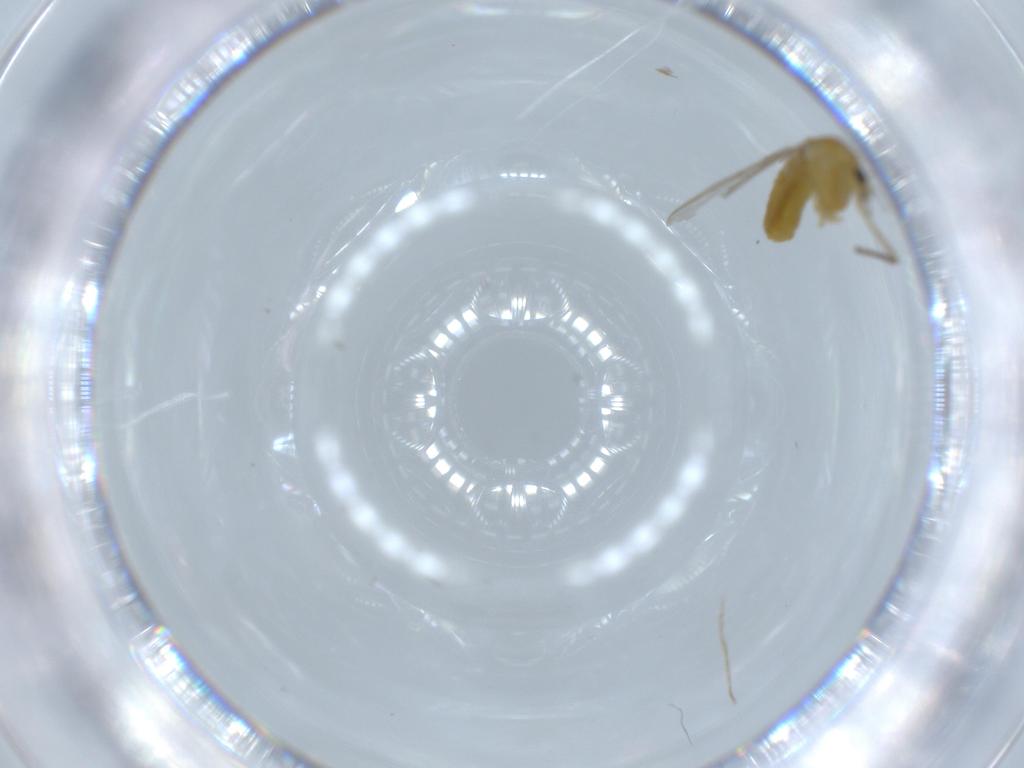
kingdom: Animalia
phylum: Arthropoda
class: Insecta
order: Diptera
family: Chironomidae
